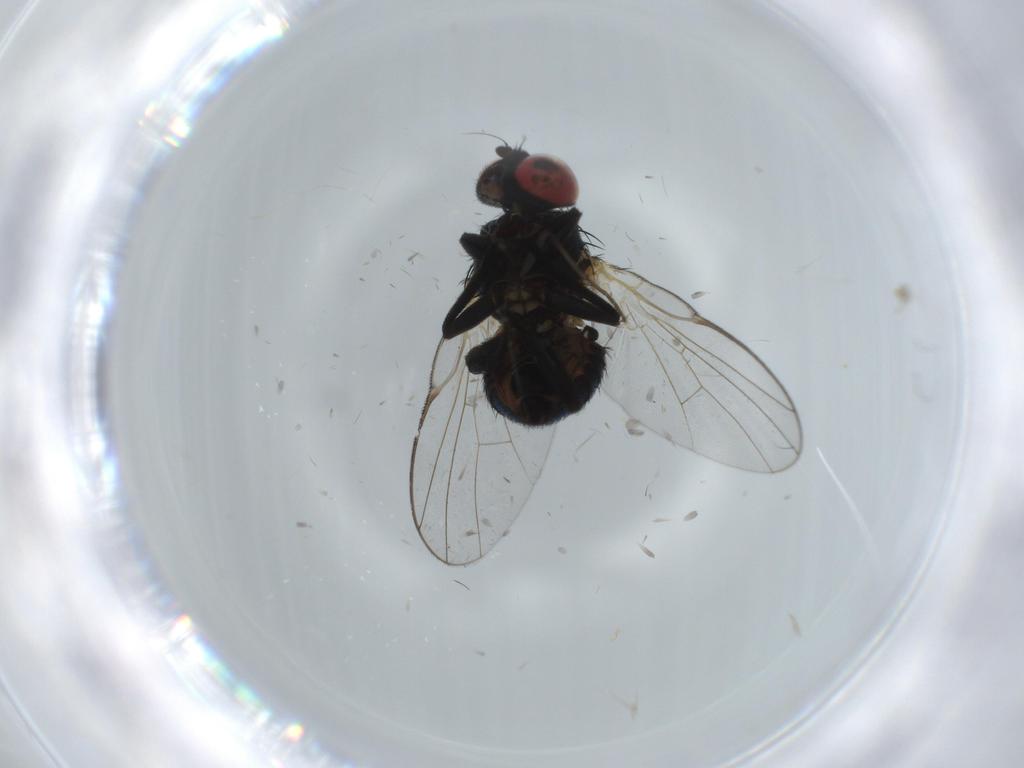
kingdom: Animalia
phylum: Arthropoda
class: Insecta
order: Diptera
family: Agromyzidae
